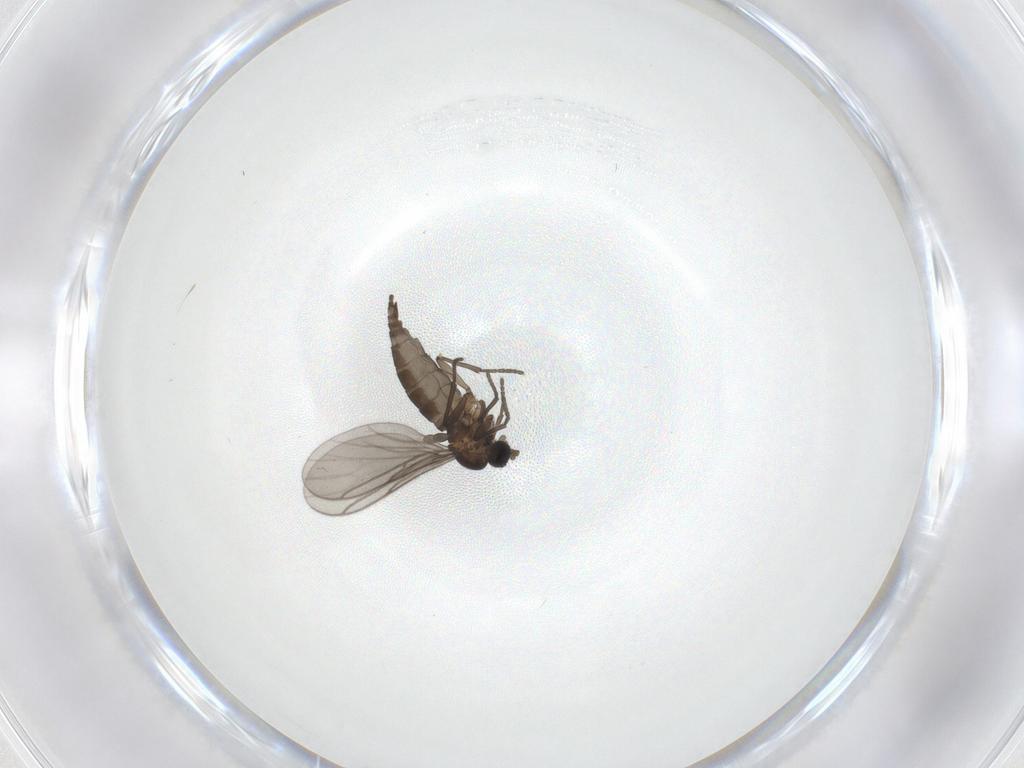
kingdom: Animalia
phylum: Arthropoda
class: Insecta
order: Diptera
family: Sciaridae
